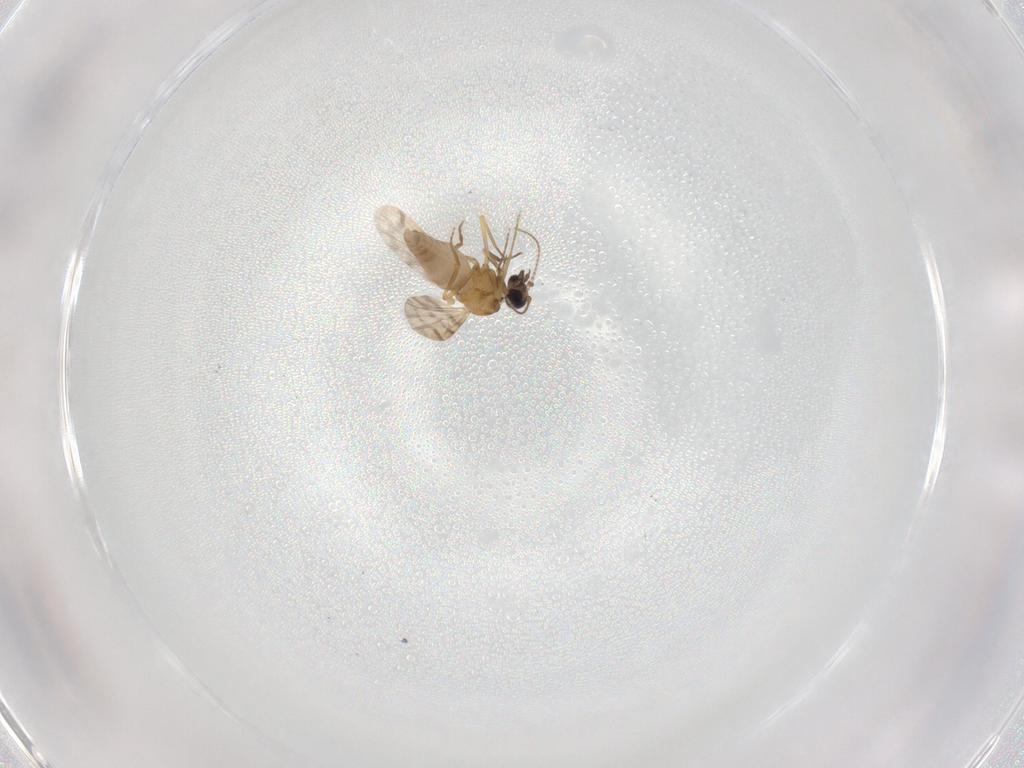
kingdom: Animalia
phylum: Arthropoda
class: Insecta
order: Diptera
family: Ceratopogonidae
